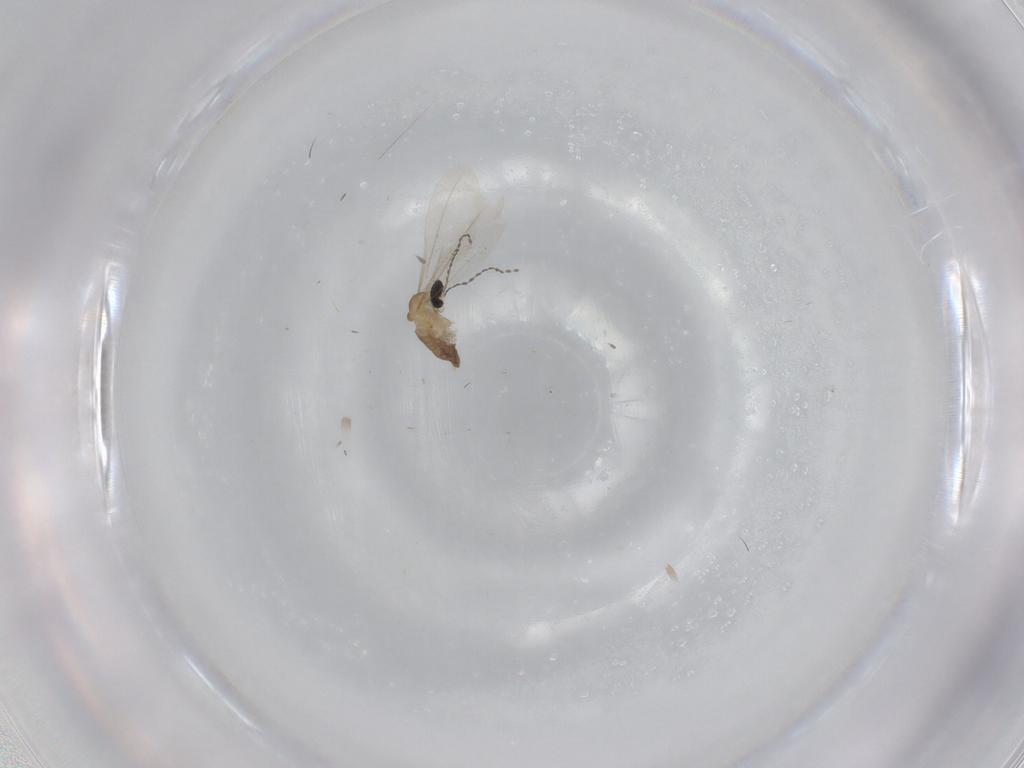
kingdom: Animalia
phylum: Arthropoda
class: Insecta
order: Diptera
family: Cecidomyiidae
